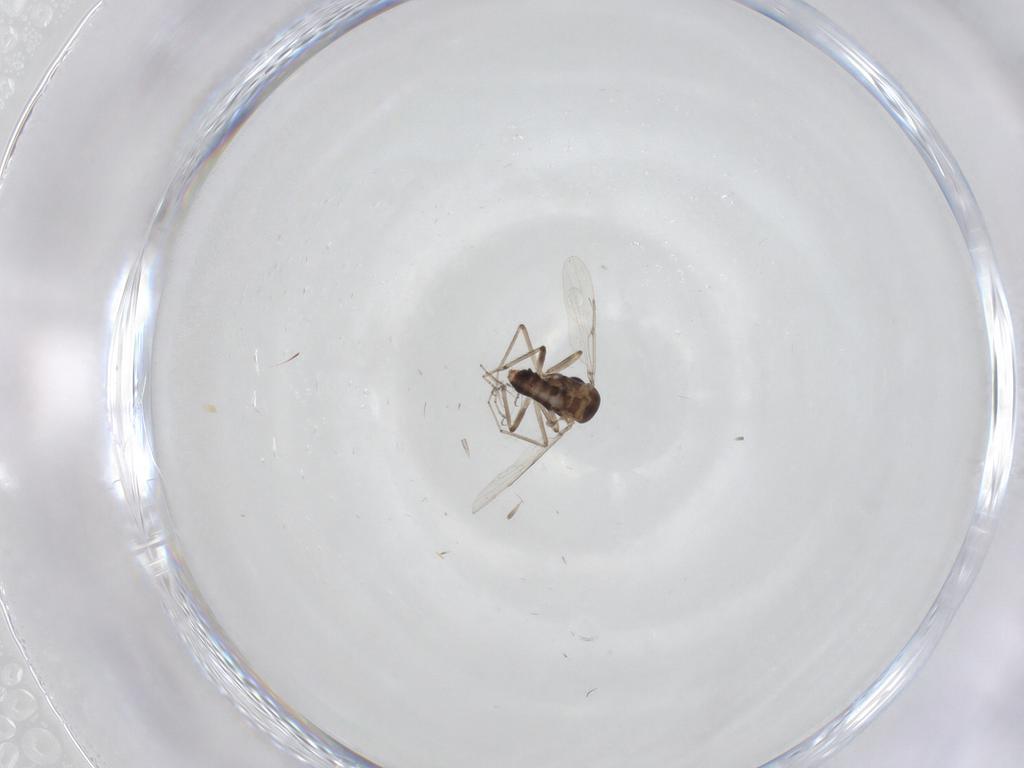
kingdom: Animalia
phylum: Arthropoda
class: Insecta
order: Diptera
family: Ceratopogonidae
